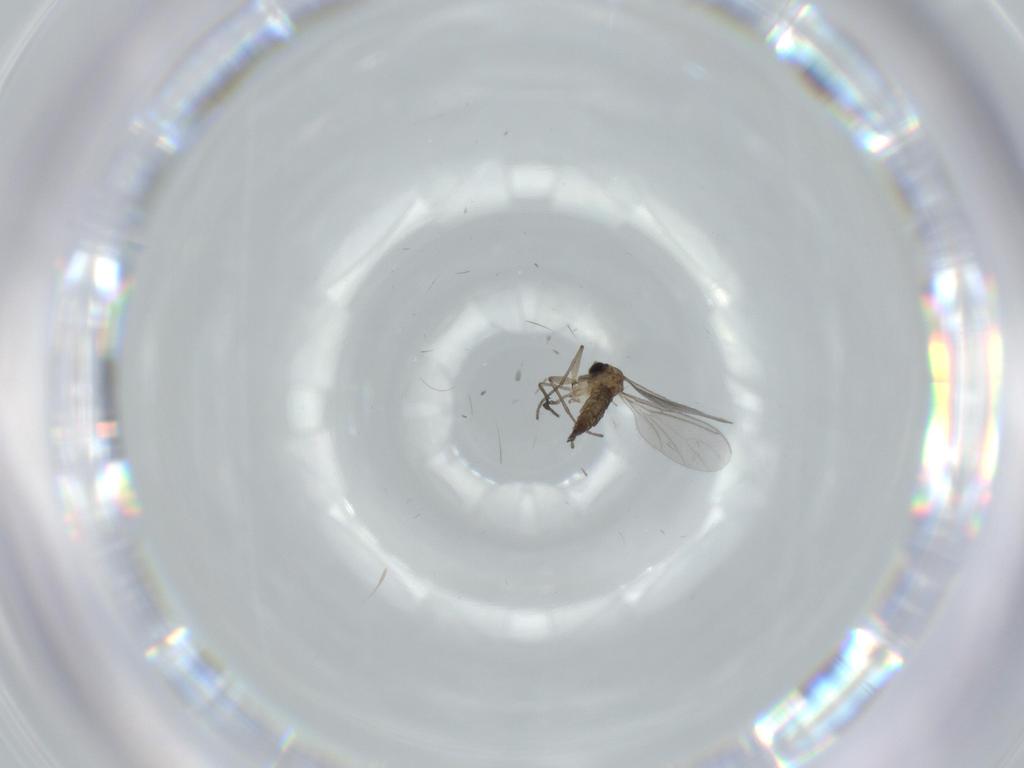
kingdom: Animalia
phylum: Arthropoda
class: Insecta
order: Diptera
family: Sciaridae
